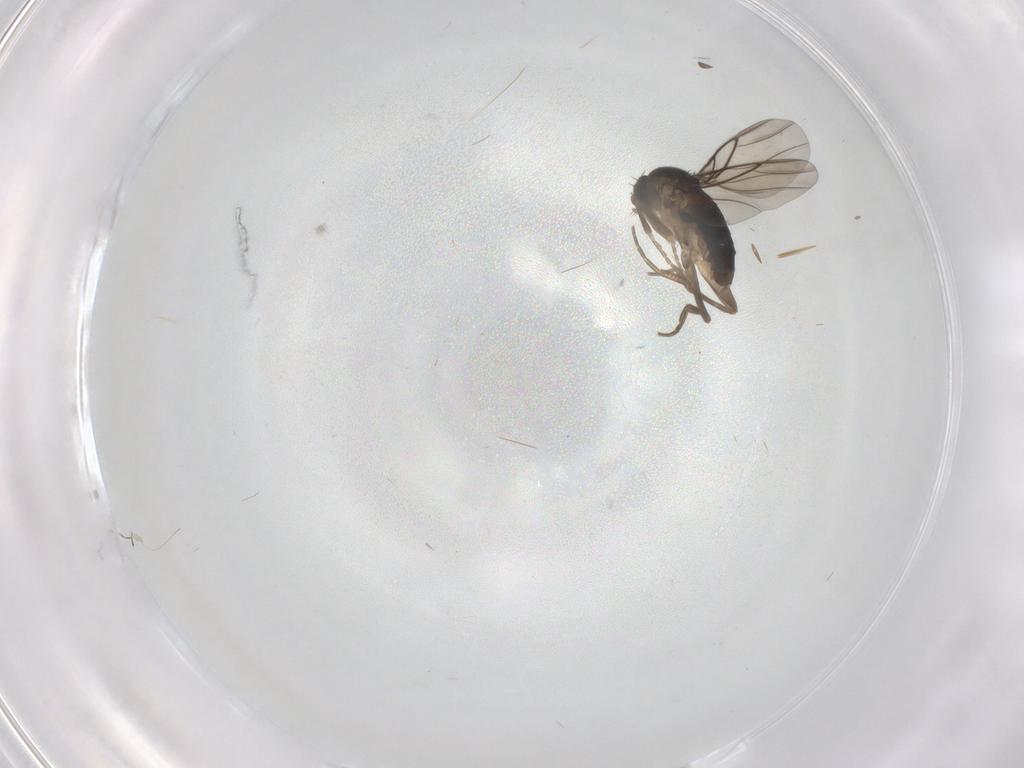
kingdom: Animalia
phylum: Arthropoda
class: Insecta
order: Diptera
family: Phoridae
